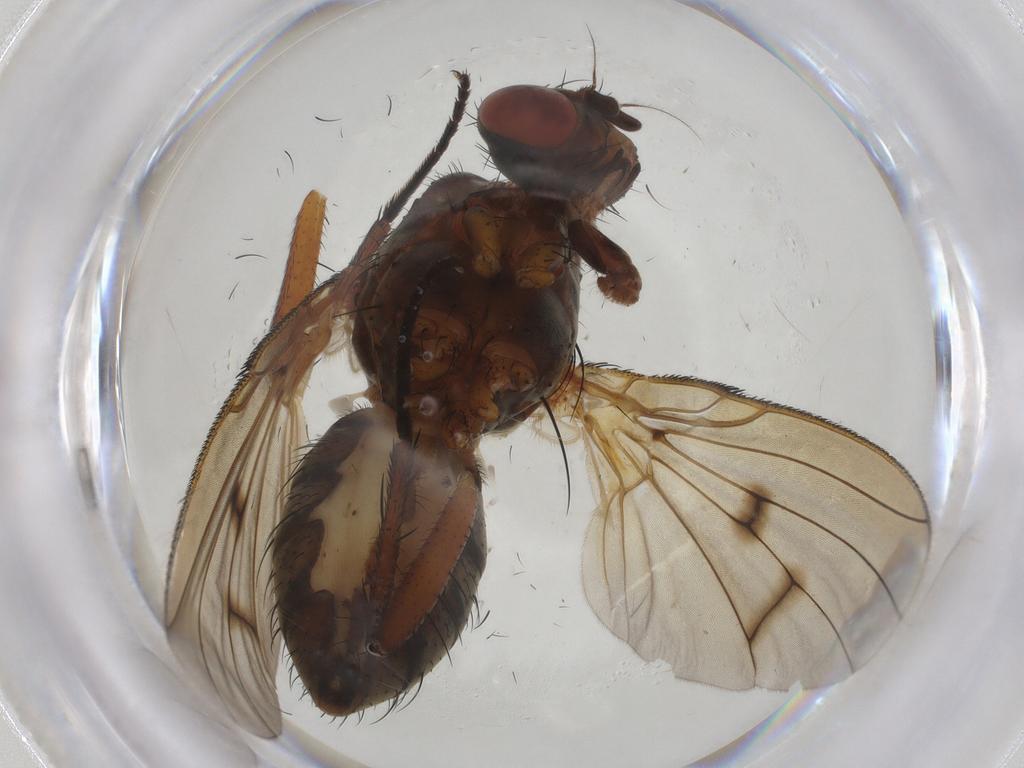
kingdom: Animalia
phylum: Arthropoda
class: Insecta
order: Diptera
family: Anthomyiidae
